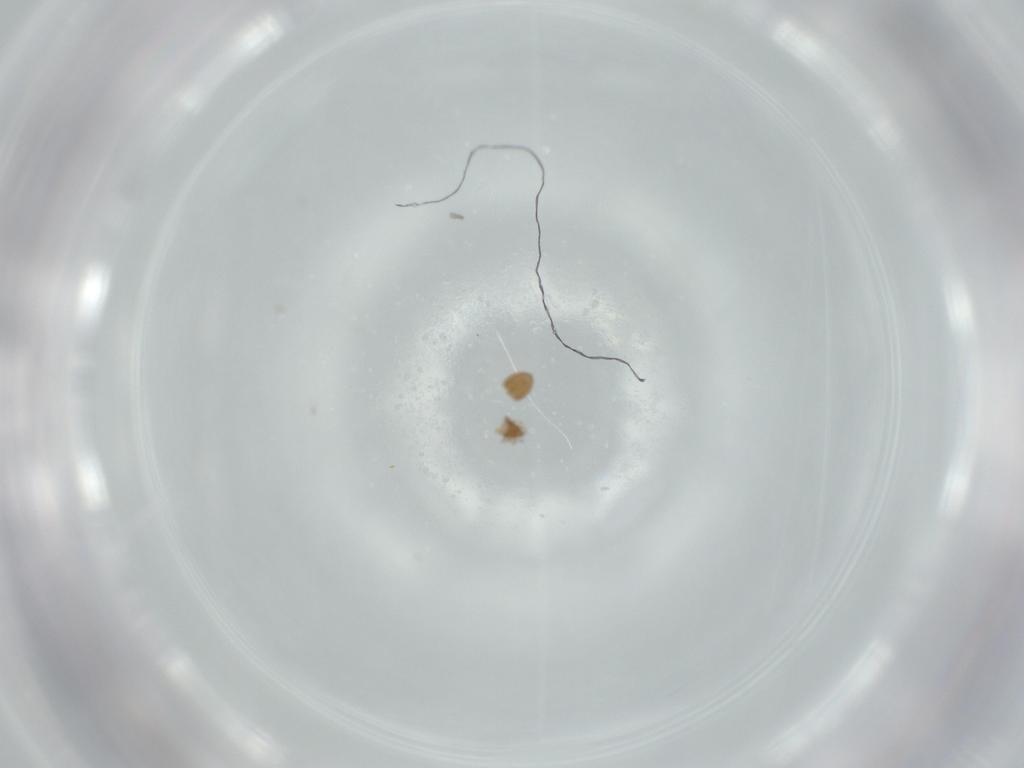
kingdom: Animalia
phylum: Arthropoda
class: Arachnida
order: Sarcoptiformes
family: Oribatulidae
